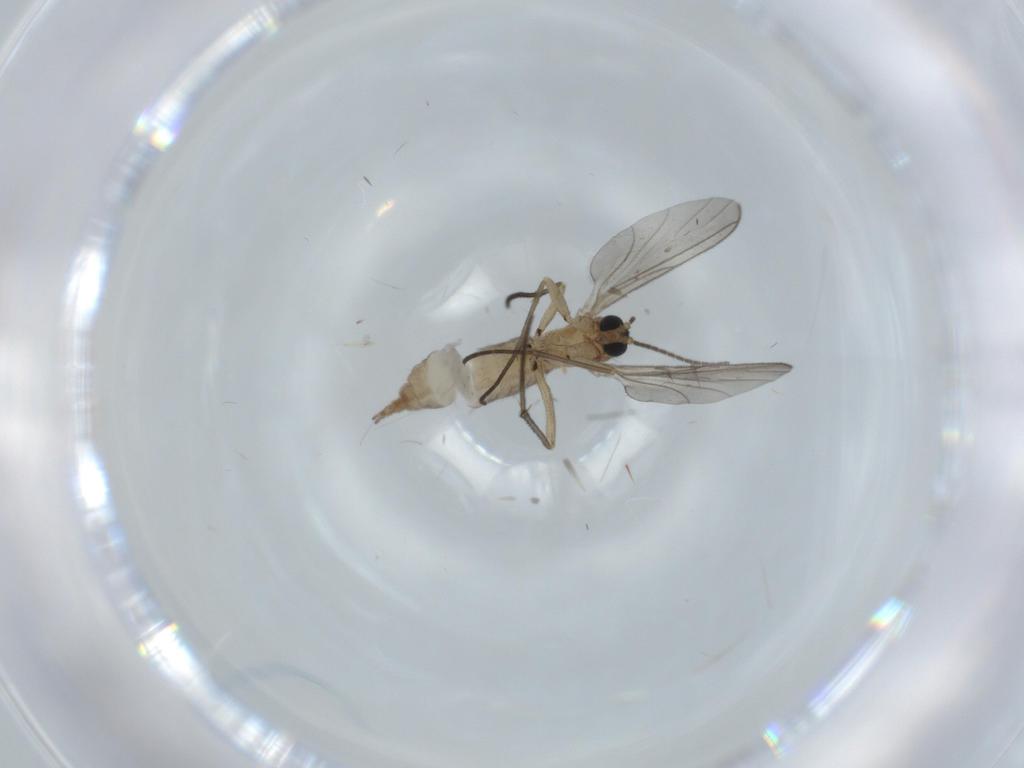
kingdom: Animalia
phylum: Arthropoda
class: Insecta
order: Diptera
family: Sciaridae
